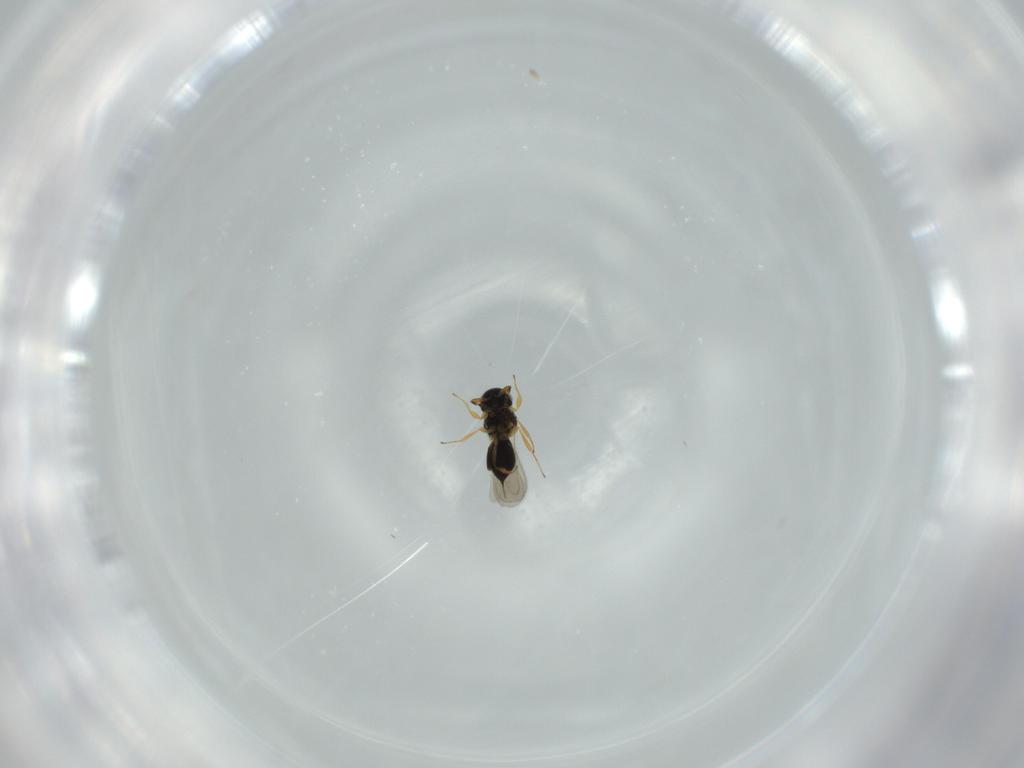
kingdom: Animalia
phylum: Arthropoda
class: Insecta
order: Hymenoptera
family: Scelionidae
